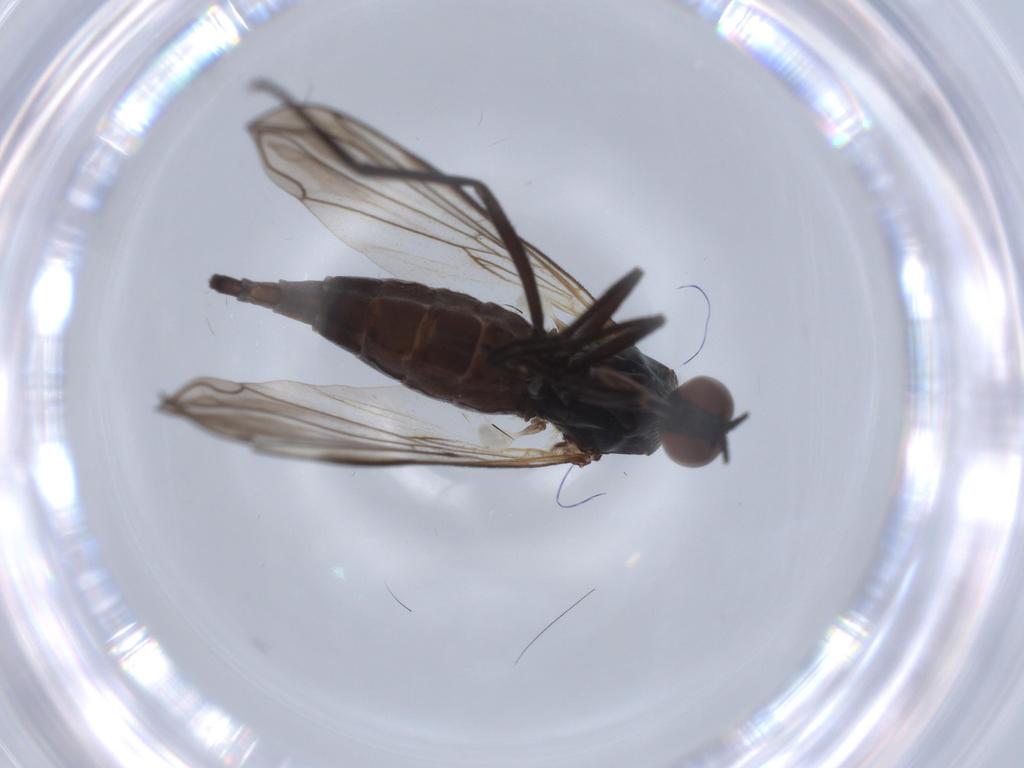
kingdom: Animalia
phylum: Arthropoda
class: Insecta
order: Diptera
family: Cecidomyiidae
